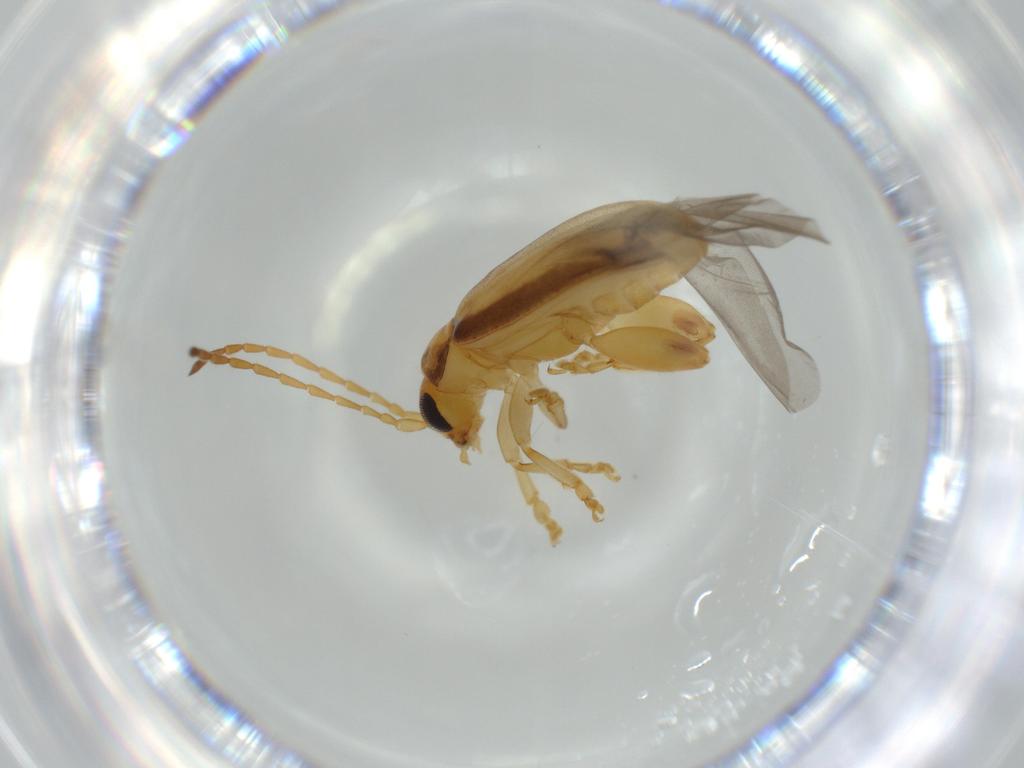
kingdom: Animalia
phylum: Arthropoda
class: Insecta
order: Coleoptera
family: Chrysomelidae
